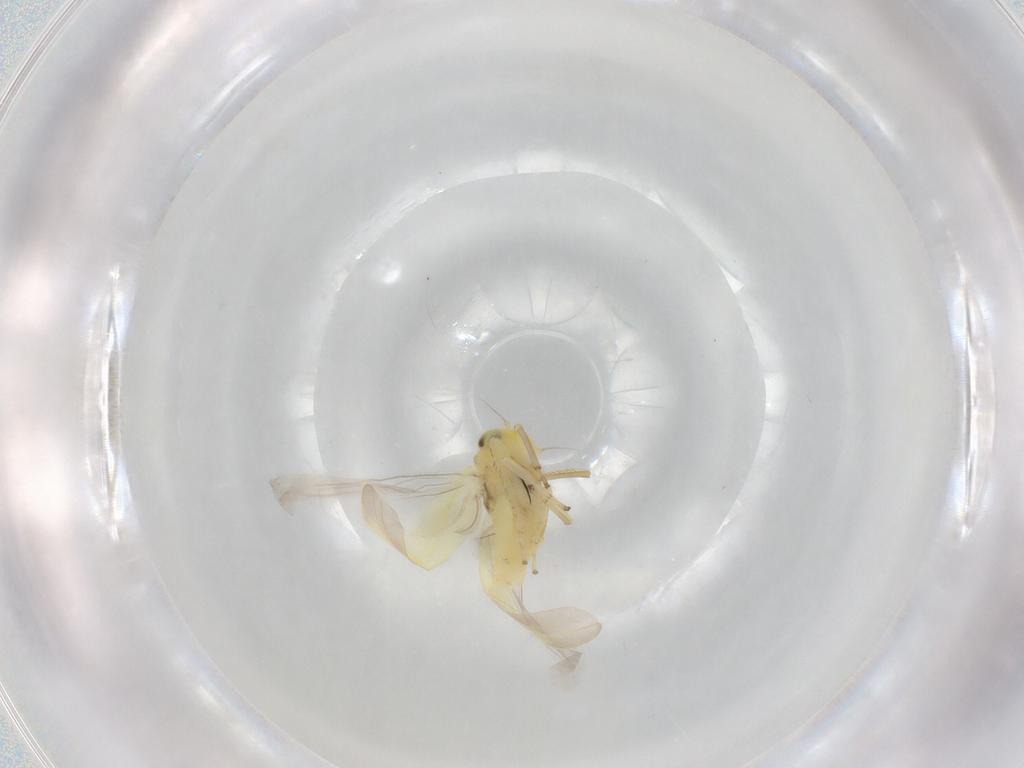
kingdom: Animalia
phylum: Arthropoda
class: Insecta
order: Hemiptera
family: Cicadellidae
